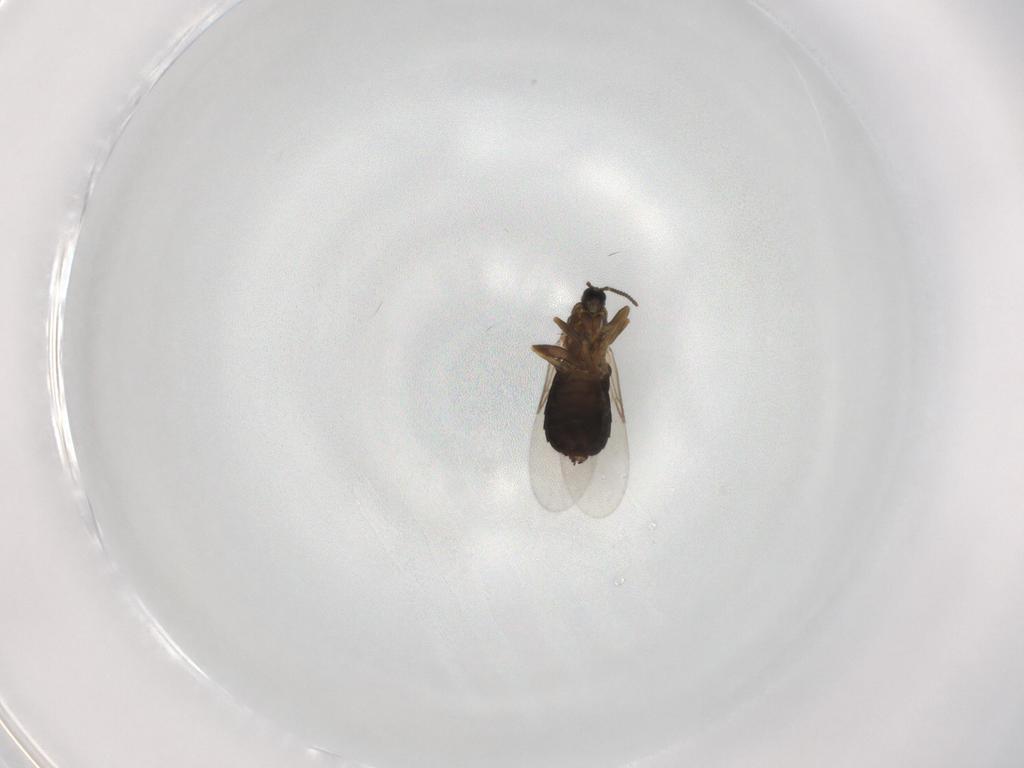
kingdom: Animalia
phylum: Arthropoda
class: Insecta
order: Diptera
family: Scatopsidae
